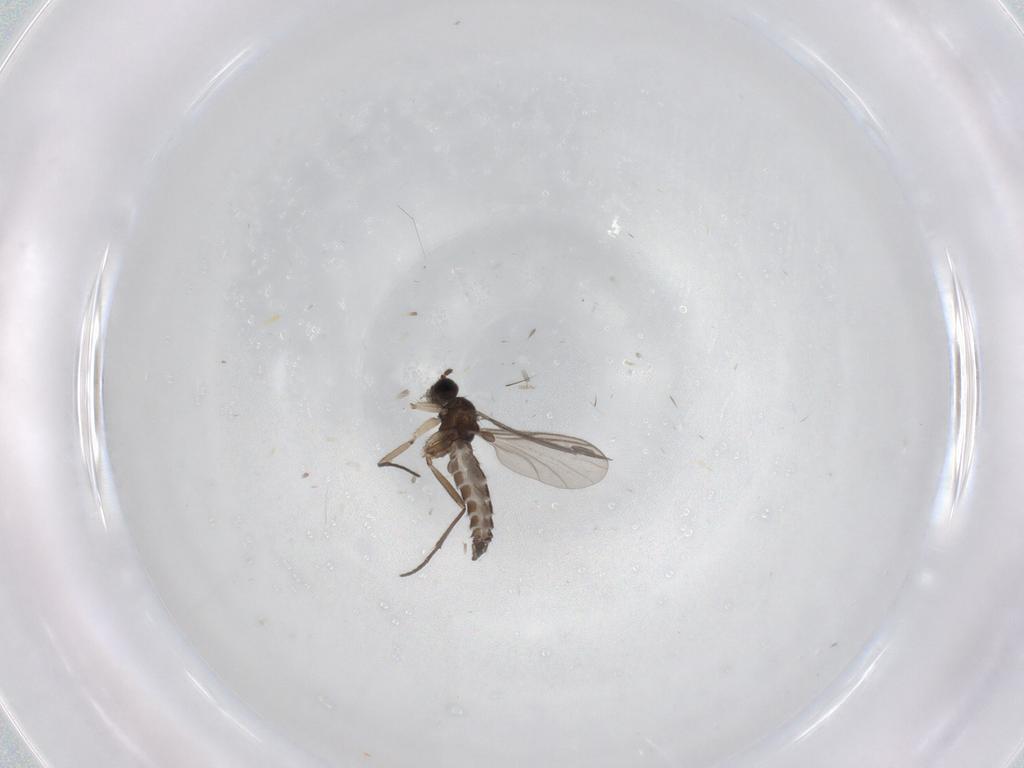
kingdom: Animalia
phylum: Arthropoda
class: Insecta
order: Diptera
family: Sciaridae
